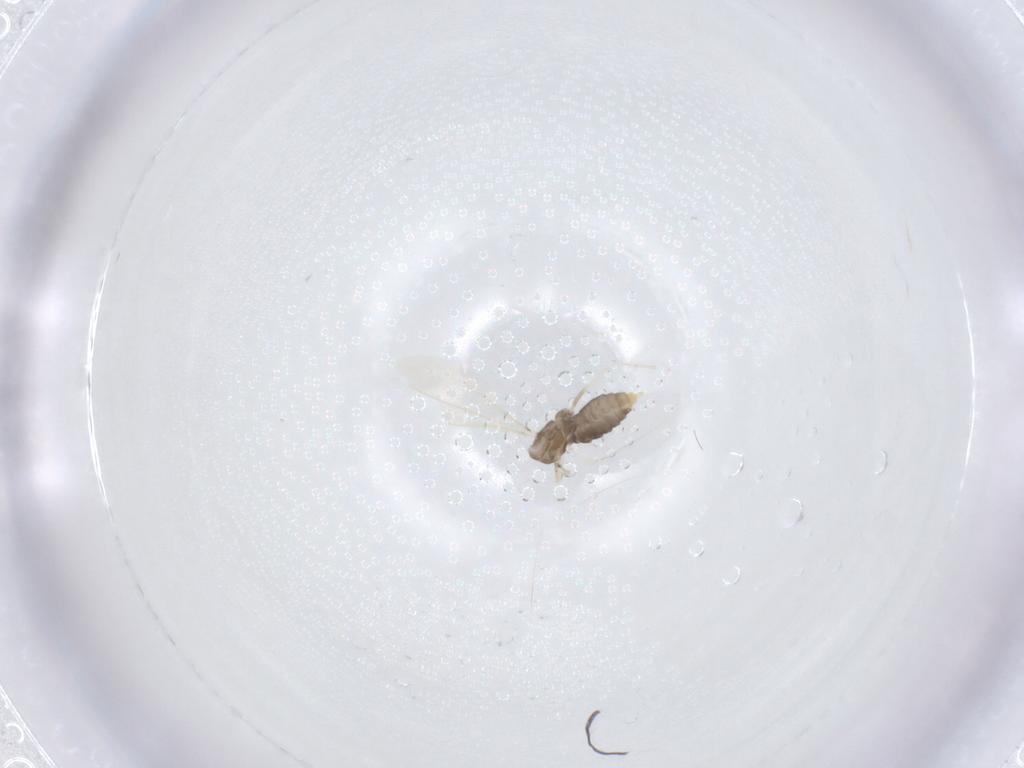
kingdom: Animalia
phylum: Arthropoda
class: Insecta
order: Diptera
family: Cecidomyiidae
